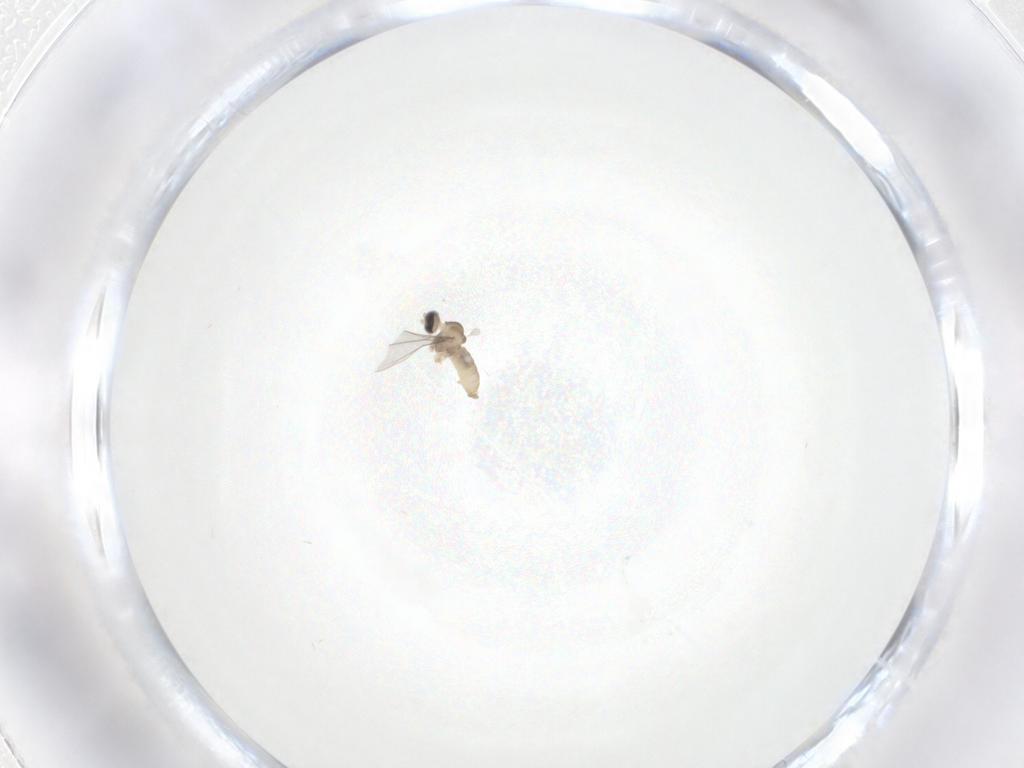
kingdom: Animalia
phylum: Arthropoda
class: Insecta
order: Diptera
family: Cecidomyiidae
